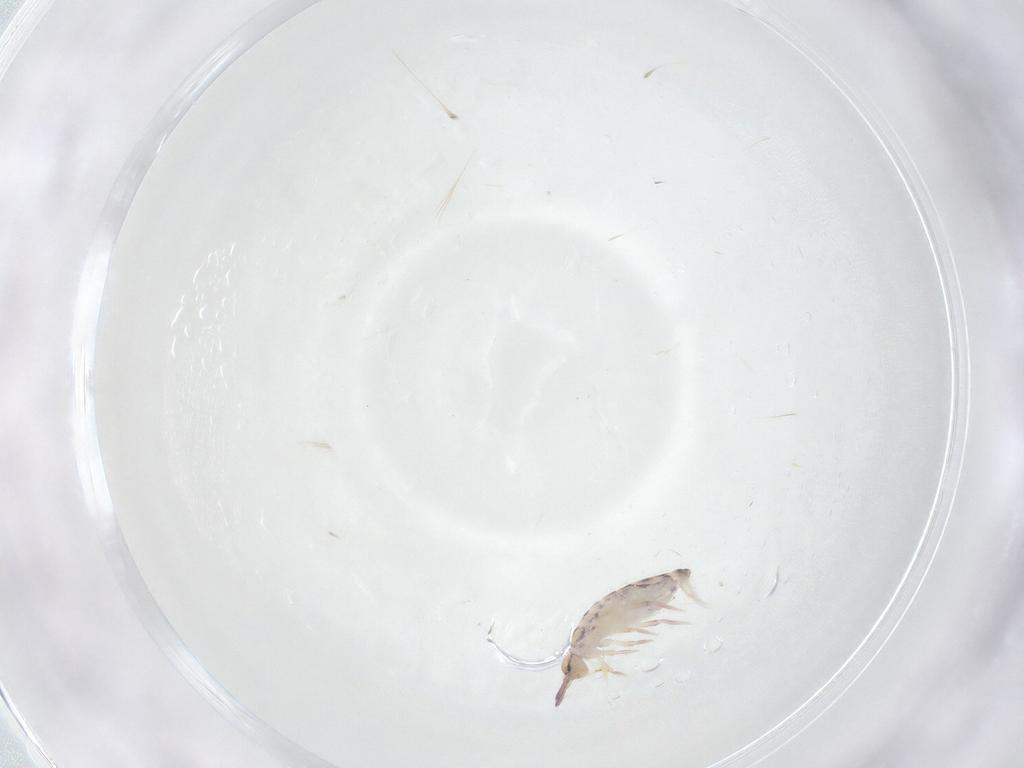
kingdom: Animalia
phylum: Arthropoda
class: Collembola
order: Entomobryomorpha
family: Entomobryidae
